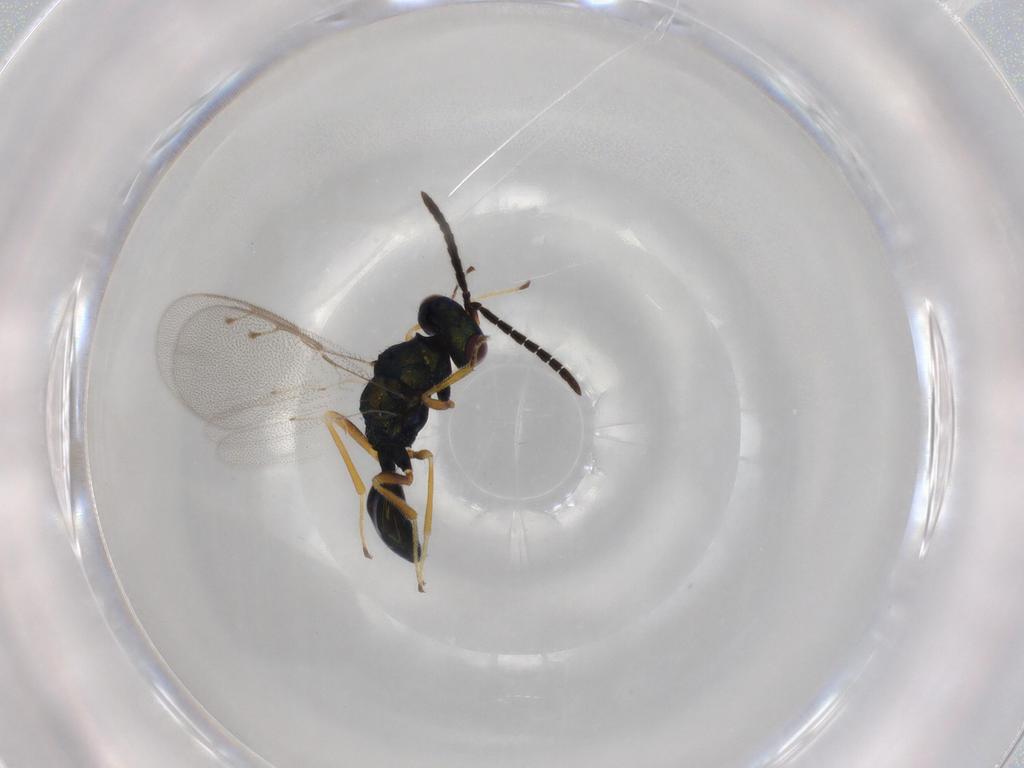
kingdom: Animalia
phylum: Arthropoda
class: Insecta
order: Hymenoptera
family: Pteromalidae
